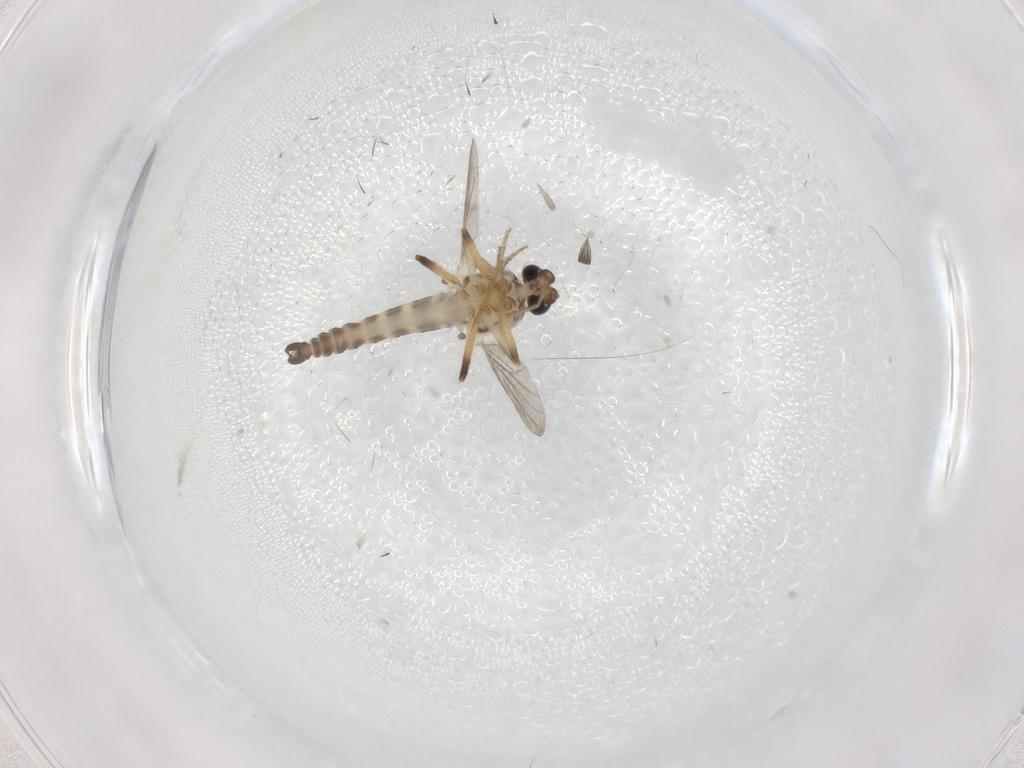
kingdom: Animalia
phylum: Arthropoda
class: Insecta
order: Diptera
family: Ceratopogonidae
